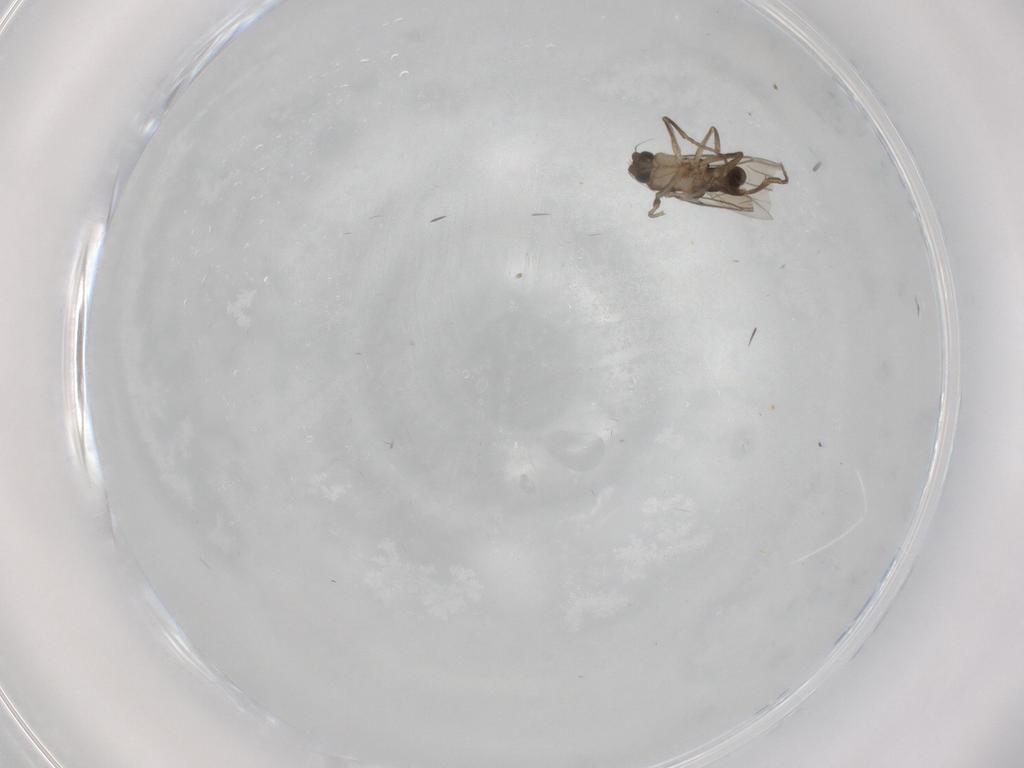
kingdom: Animalia
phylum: Arthropoda
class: Insecta
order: Diptera
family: Phoridae
